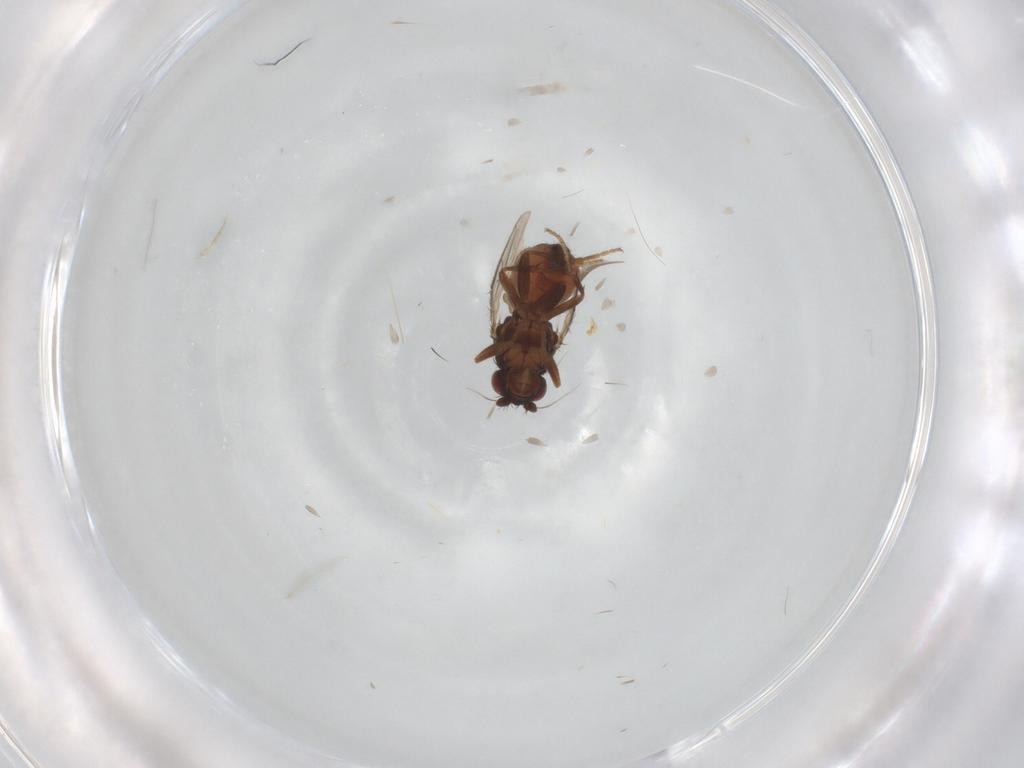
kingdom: Animalia
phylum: Arthropoda
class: Insecta
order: Diptera
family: Sphaeroceridae
